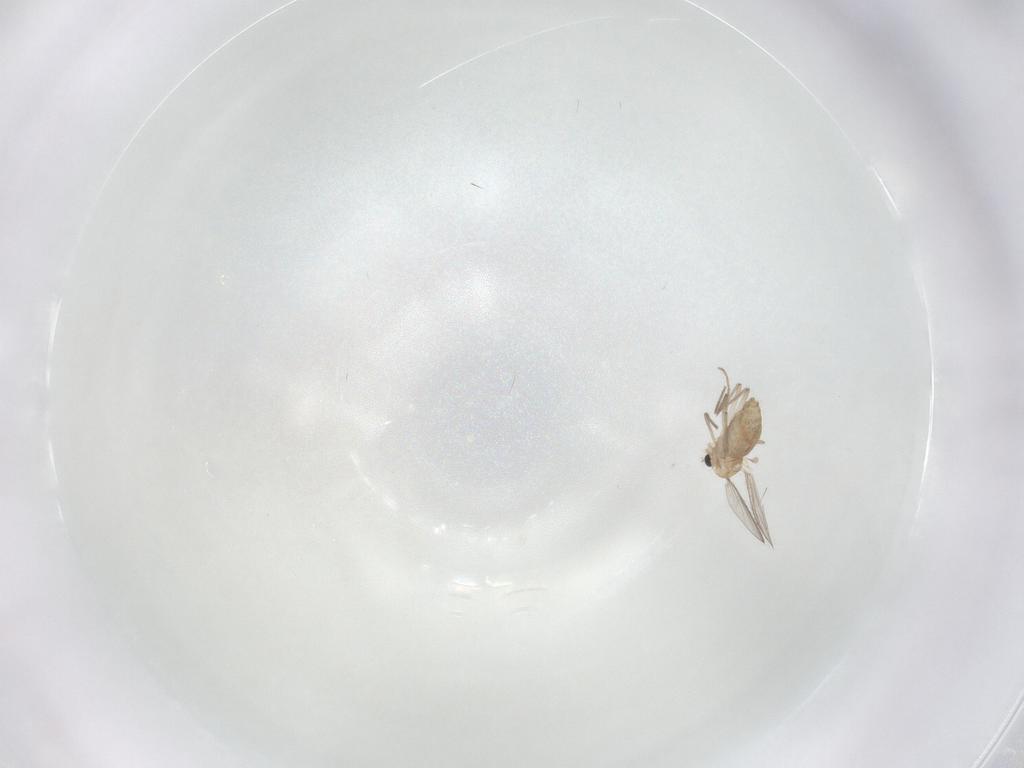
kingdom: Animalia
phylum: Arthropoda
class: Insecta
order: Diptera
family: Chironomidae
